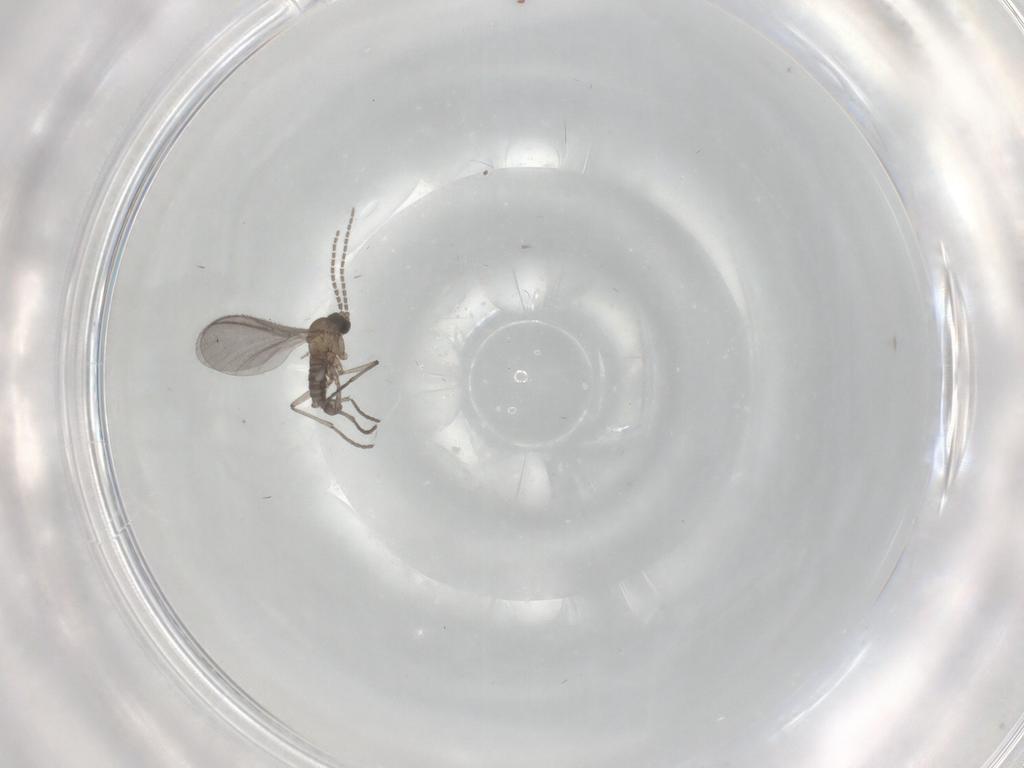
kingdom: Animalia
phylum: Arthropoda
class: Insecta
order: Diptera
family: Sciaridae
